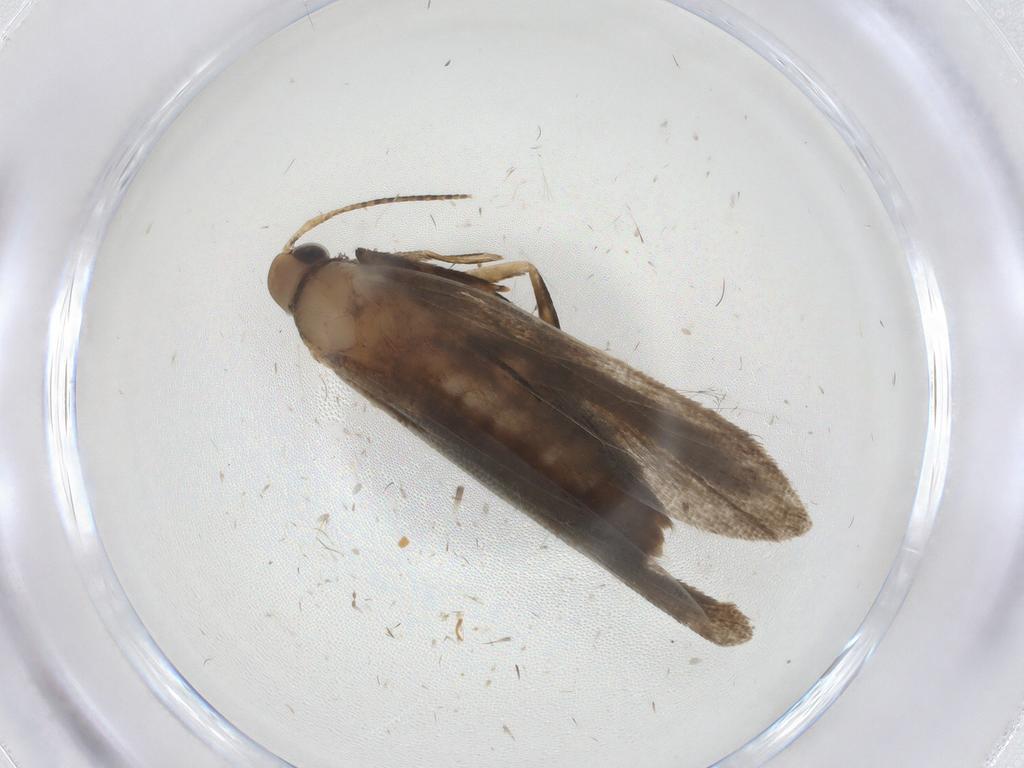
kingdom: Animalia
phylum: Arthropoda
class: Insecta
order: Lepidoptera
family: Gelechiidae
